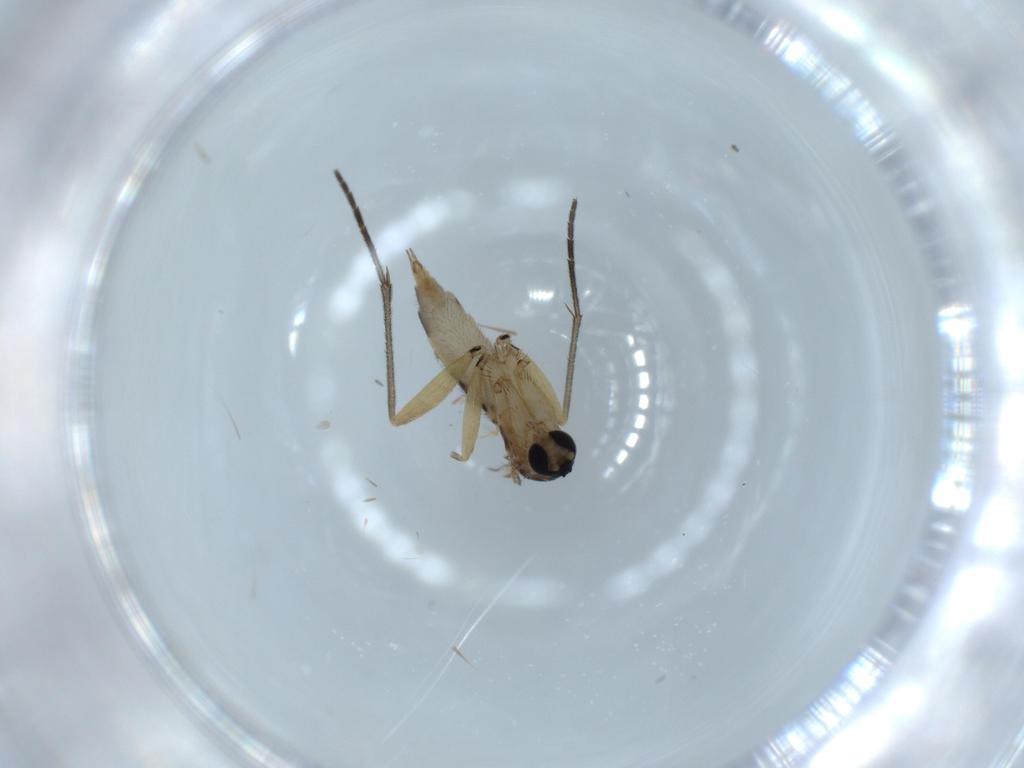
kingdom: Animalia
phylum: Arthropoda
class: Insecta
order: Diptera
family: Sciaridae
